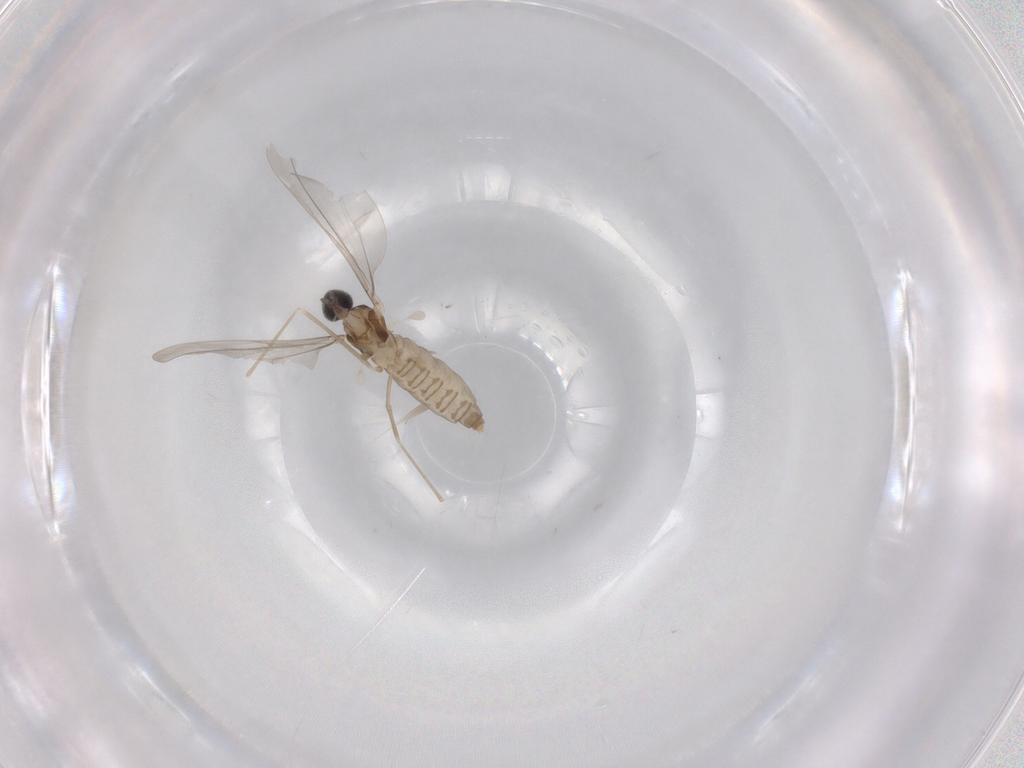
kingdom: Animalia
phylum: Arthropoda
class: Insecta
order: Diptera
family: Cecidomyiidae
